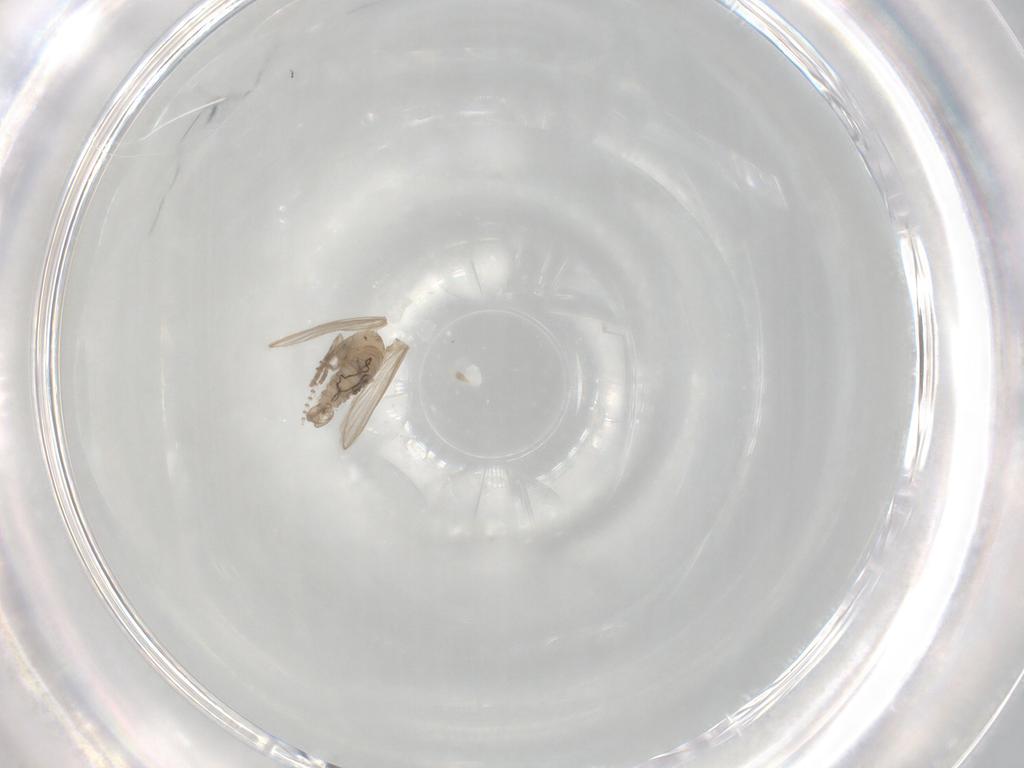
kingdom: Animalia
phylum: Arthropoda
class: Insecta
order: Diptera
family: Psychodidae
